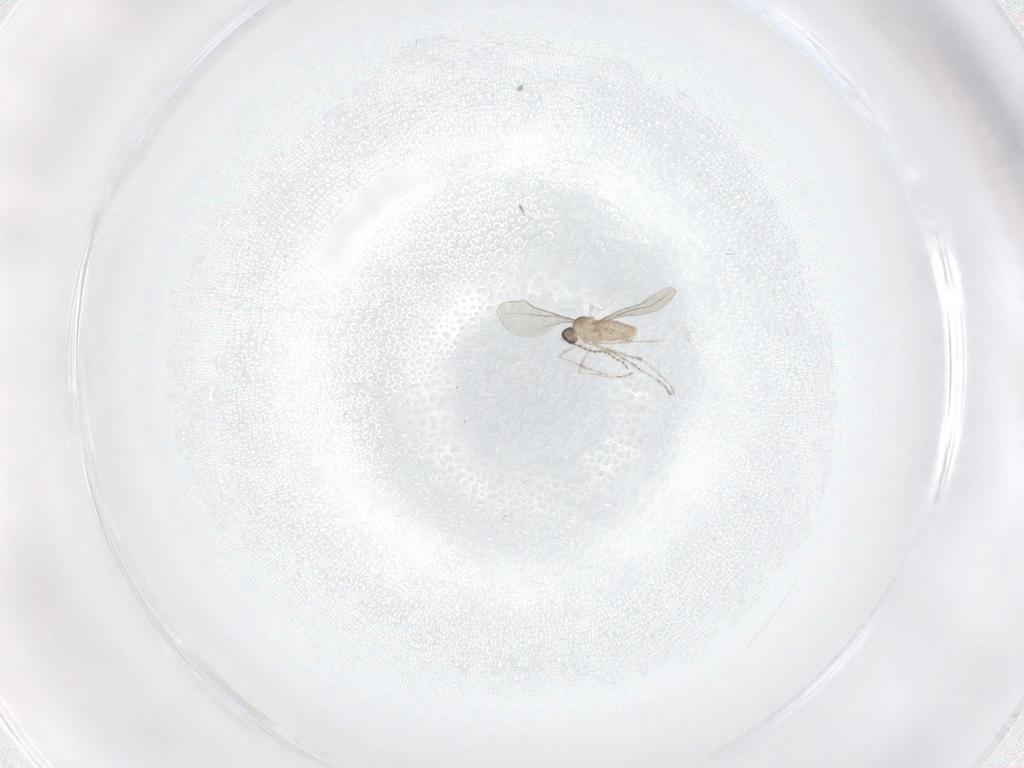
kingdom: Animalia
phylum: Arthropoda
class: Insecta
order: Diptera
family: Cecidomyiidae
